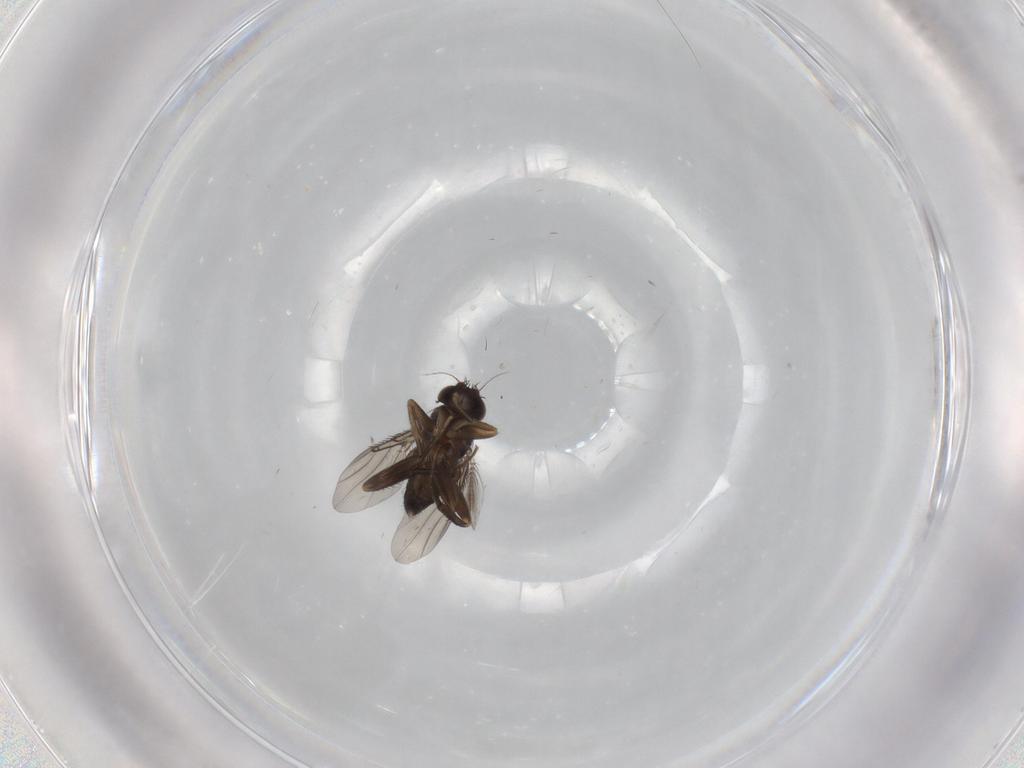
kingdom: Animalia
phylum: Arthropoda
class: Insecta
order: Diptera
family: Phoridae
